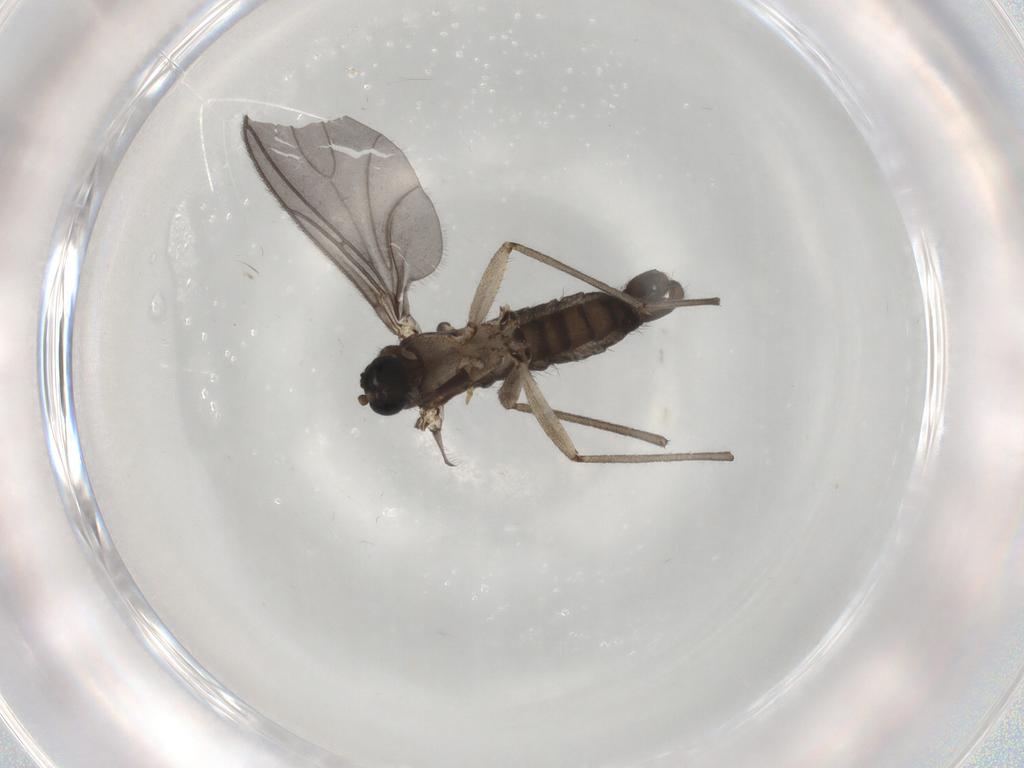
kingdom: Animalia
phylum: Arthropoda
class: Insecta
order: Diptera
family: Sciaridae
